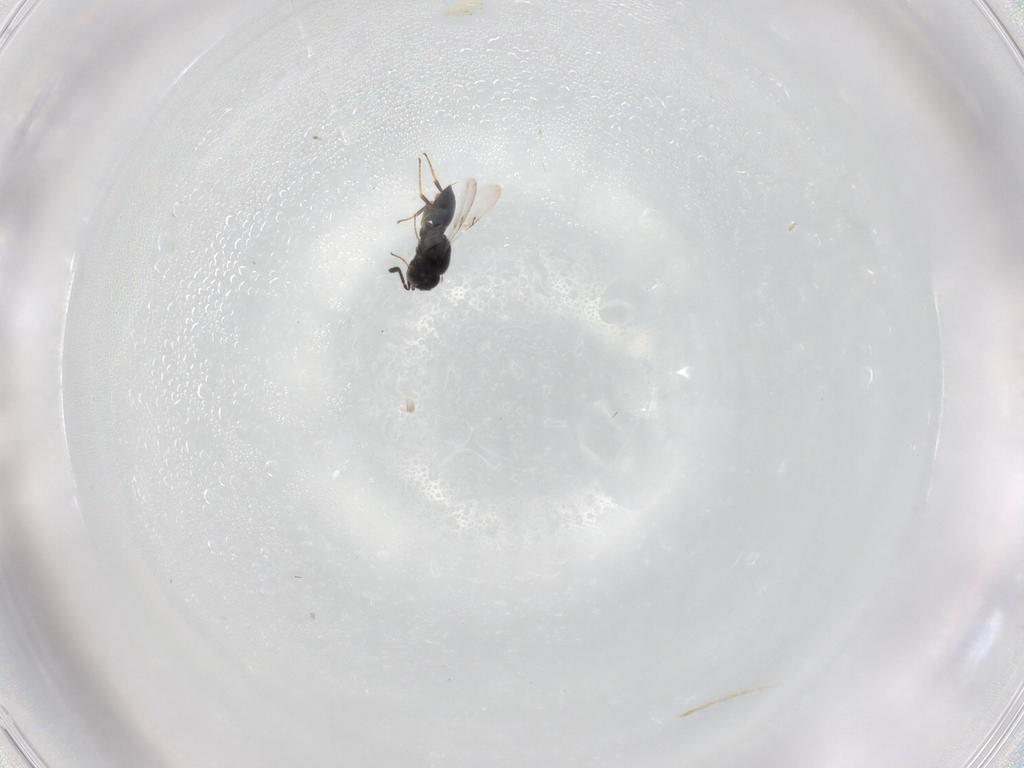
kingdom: Animalia
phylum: Arthropoda
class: Insecta
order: Hymenoptera
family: Scelionidae
